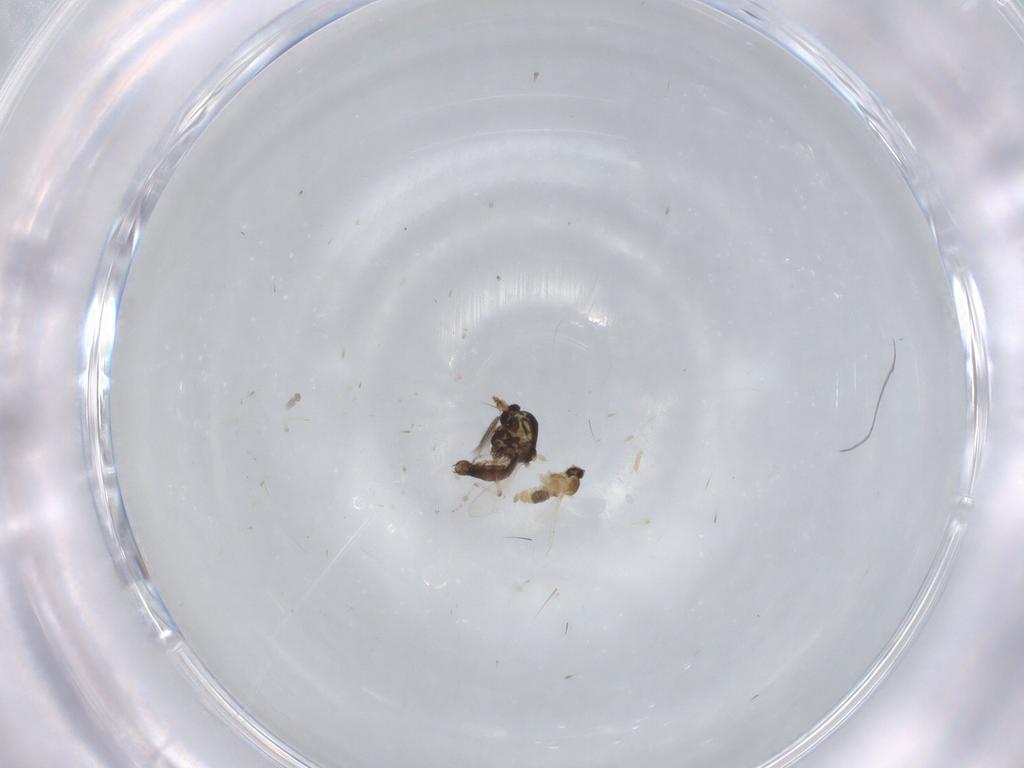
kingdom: Animalia
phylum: Arthropoda
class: Insecta
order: Diptera
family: Ceratopogonidae
